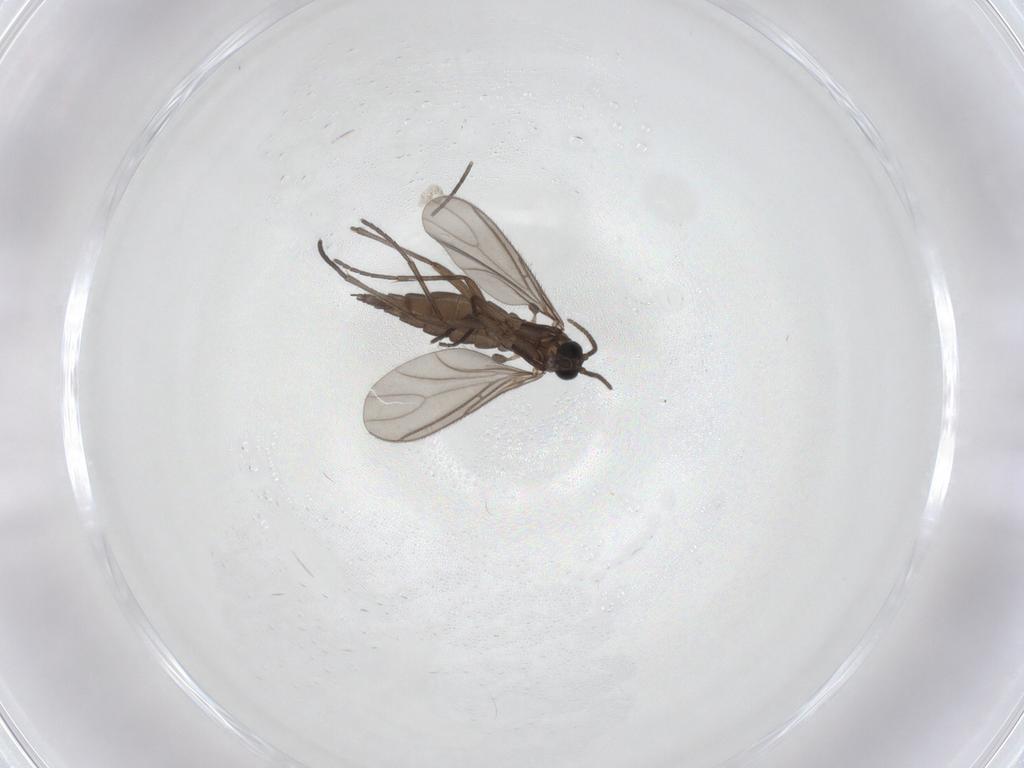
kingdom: Animalia
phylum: Arthropoda
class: Insecta
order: Diptera
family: Sciaridae
